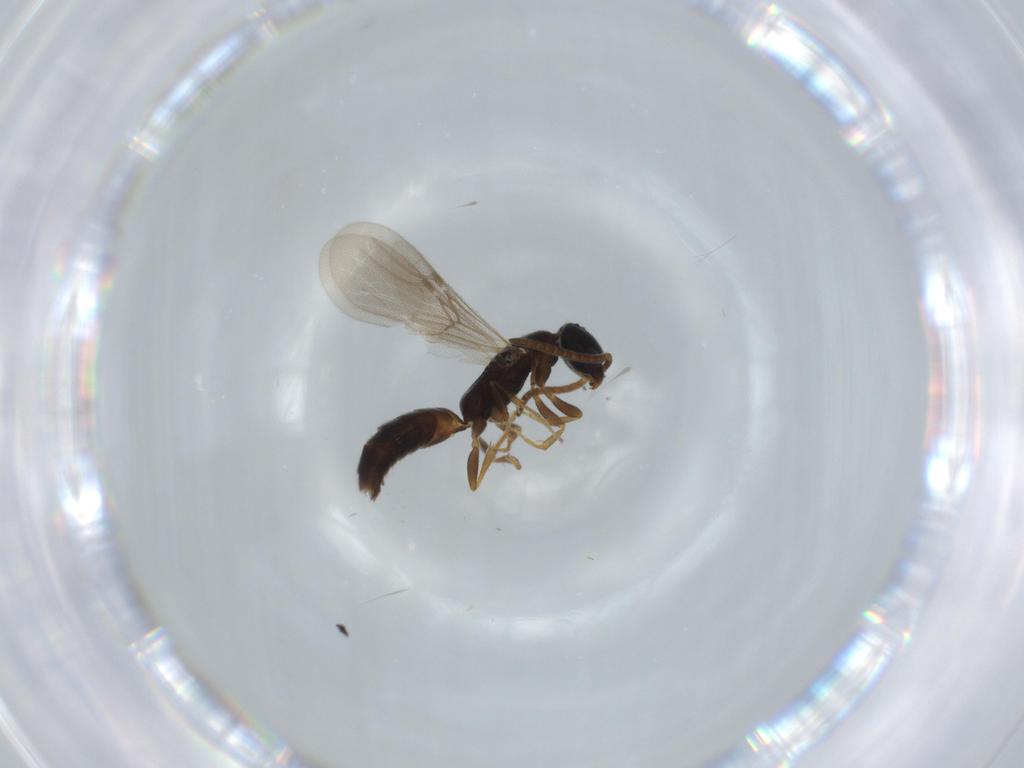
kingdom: Animalia
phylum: Arthropoda
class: Insecta
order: Hymenoptera
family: Bethylidae
